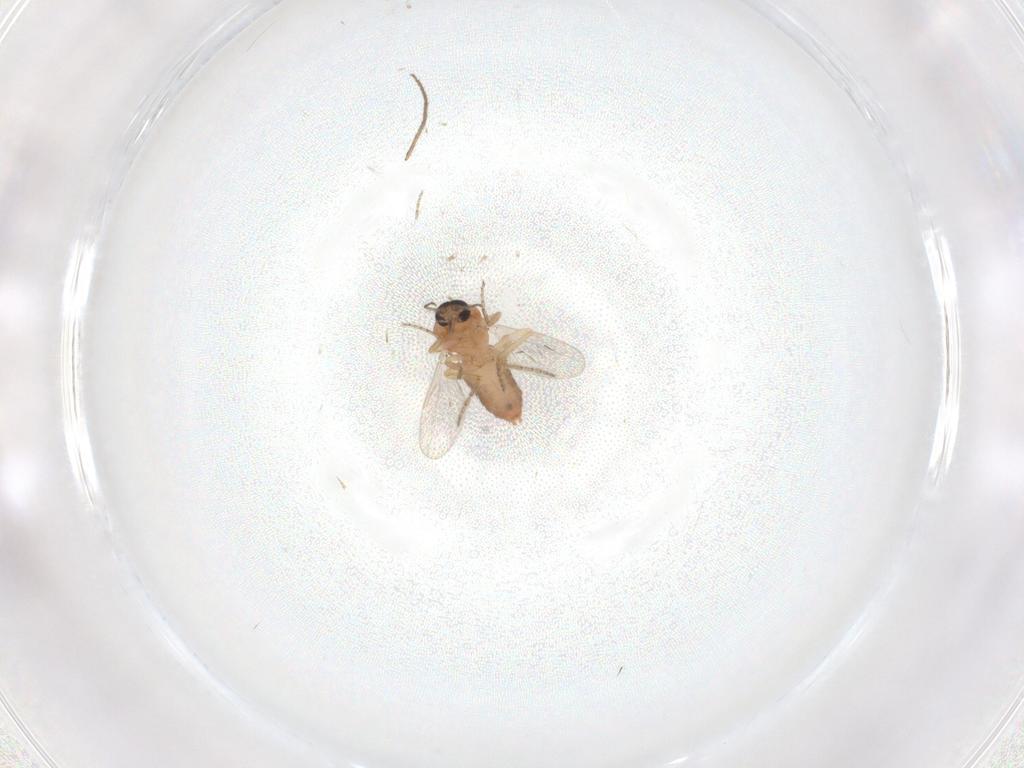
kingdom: Animalia
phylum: Arthropoda
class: Insecta
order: Diptera
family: Ceratopogonidae
